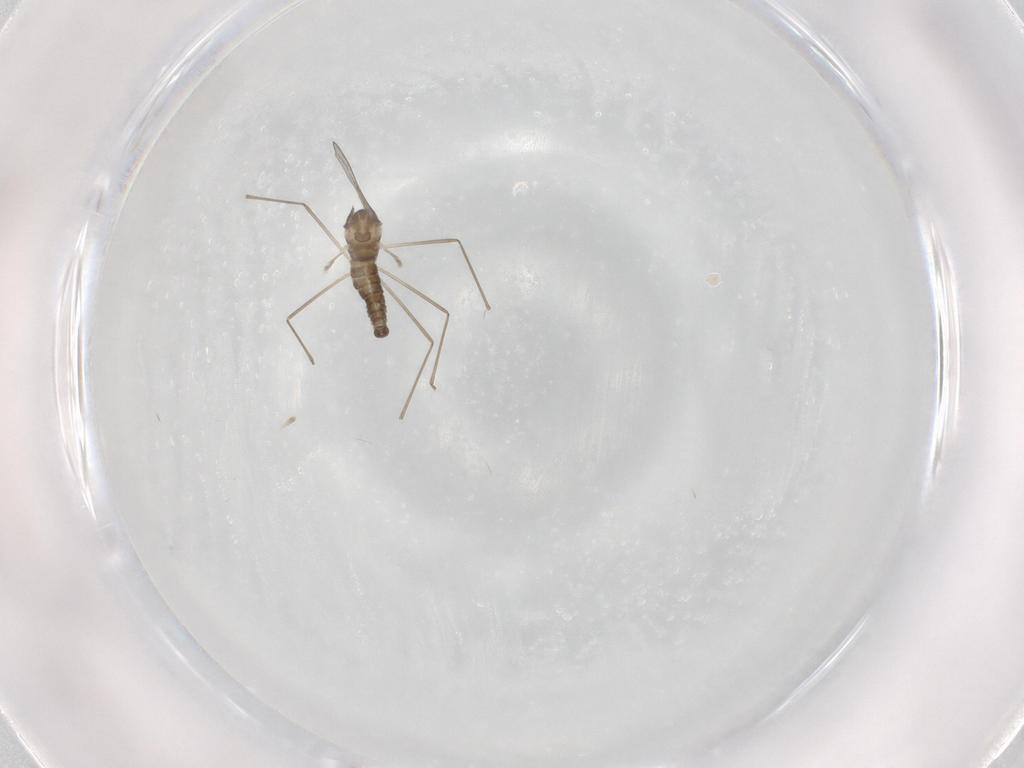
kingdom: Animalia
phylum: Arthropoda
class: Insecta
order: Diptera
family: Cecidomyiidae
